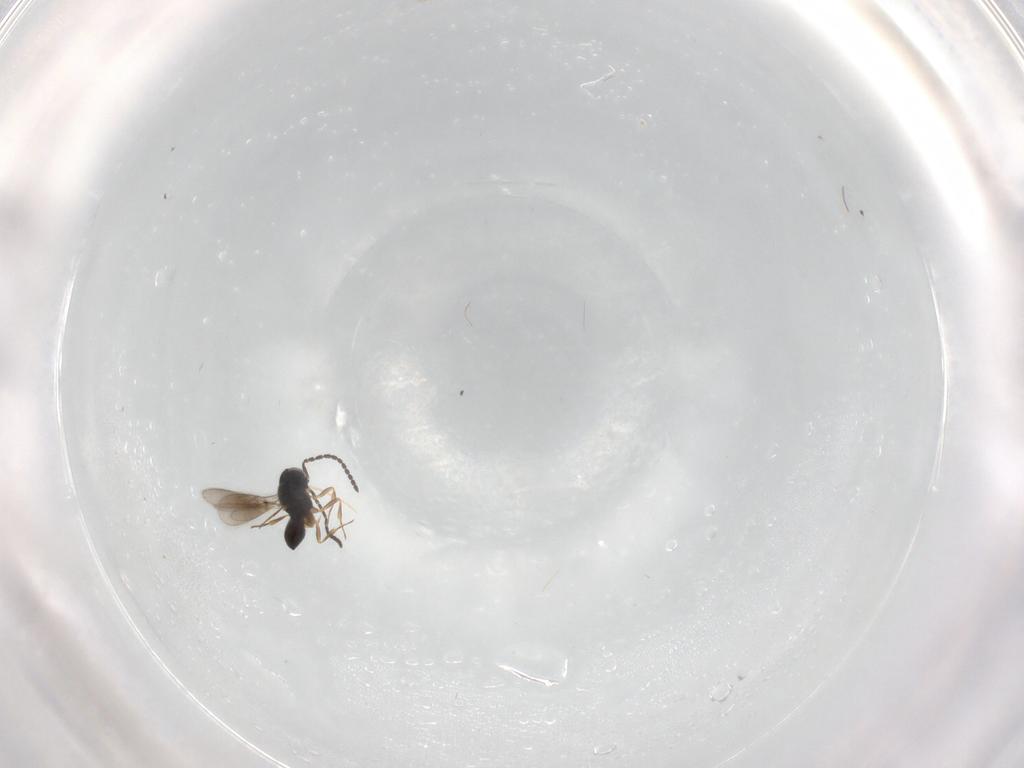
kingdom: Animalia
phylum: Arthropoda
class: Insecta
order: Hymenoptera
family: Scelionidae
